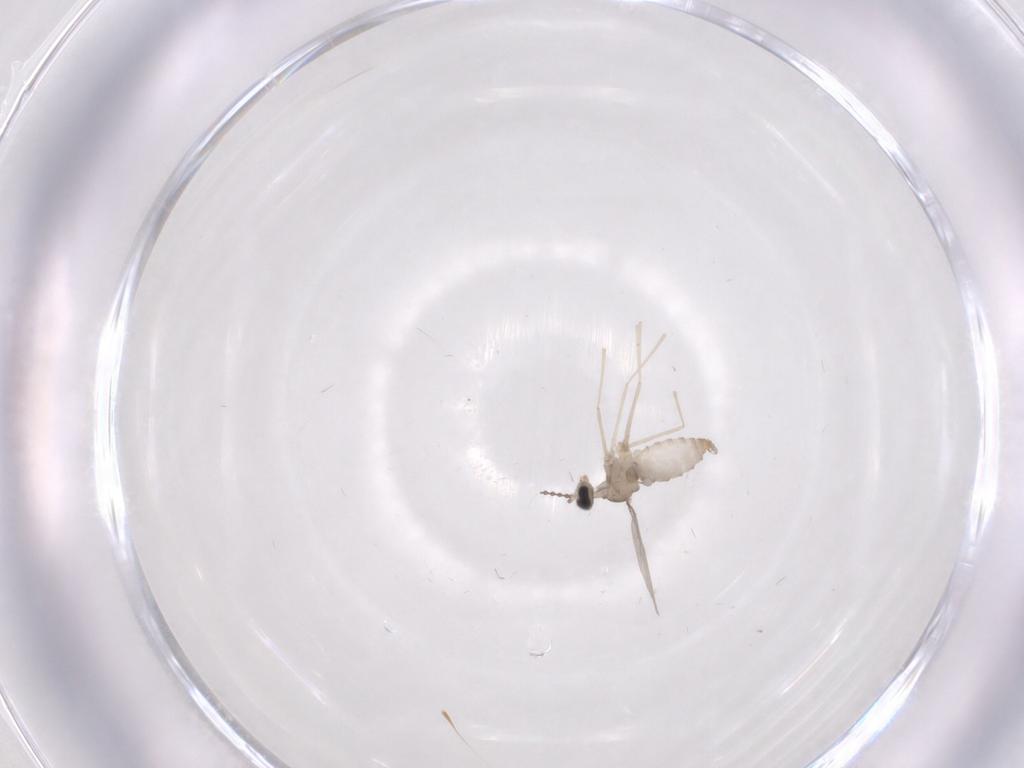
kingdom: Animalia
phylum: Arthropoda
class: Insecta
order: Diptera
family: Cecidomyiidae
